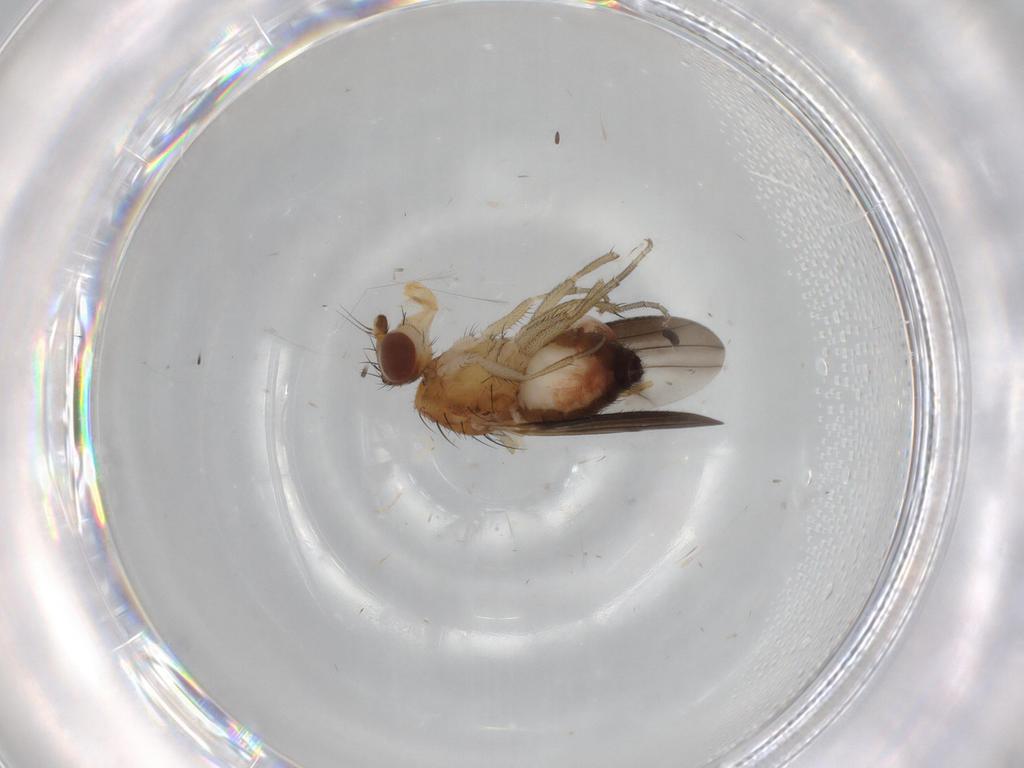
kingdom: Animalia
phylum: Arthropoda
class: Insecta
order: Diptera
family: Heleomyzidae
